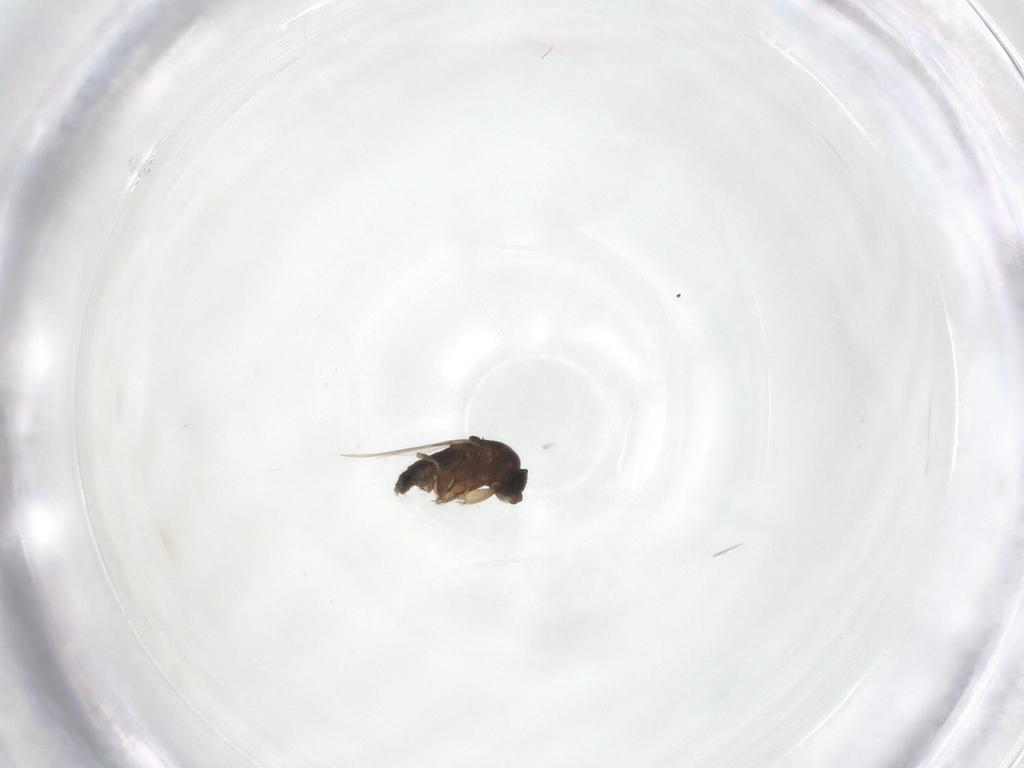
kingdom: Animalia
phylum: Arthropoda
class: Insecta
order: Diptera
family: Phoridae
